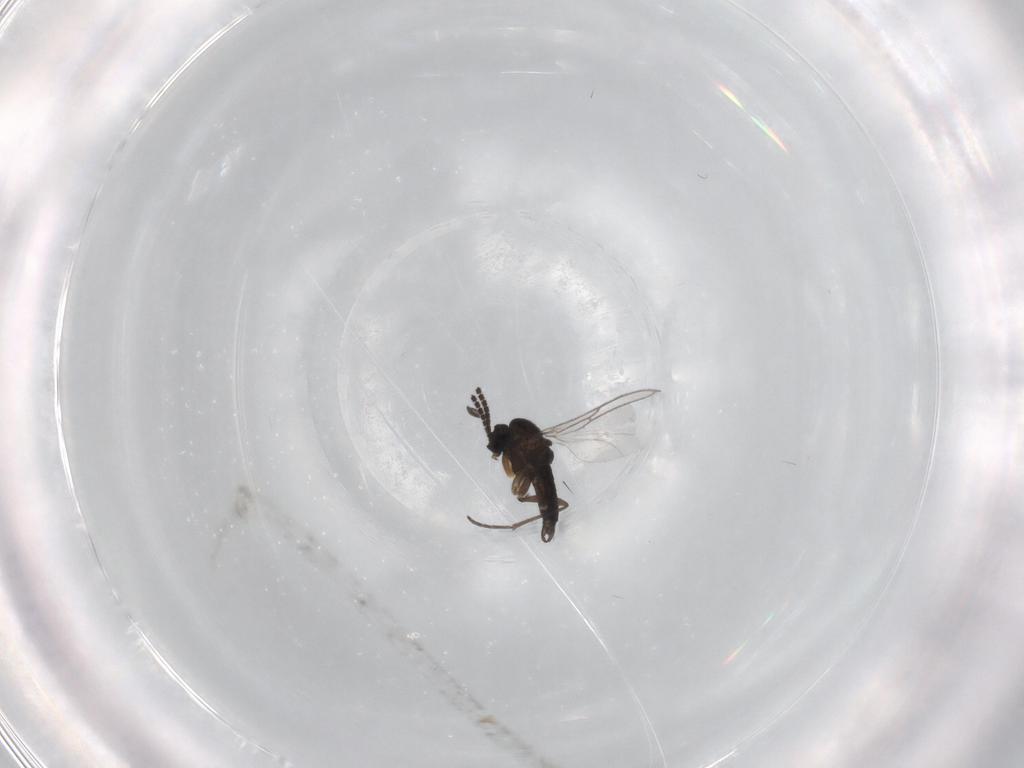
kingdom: Animalia
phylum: Arthropoda
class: Insecta
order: Diptera
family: Sciaridae
